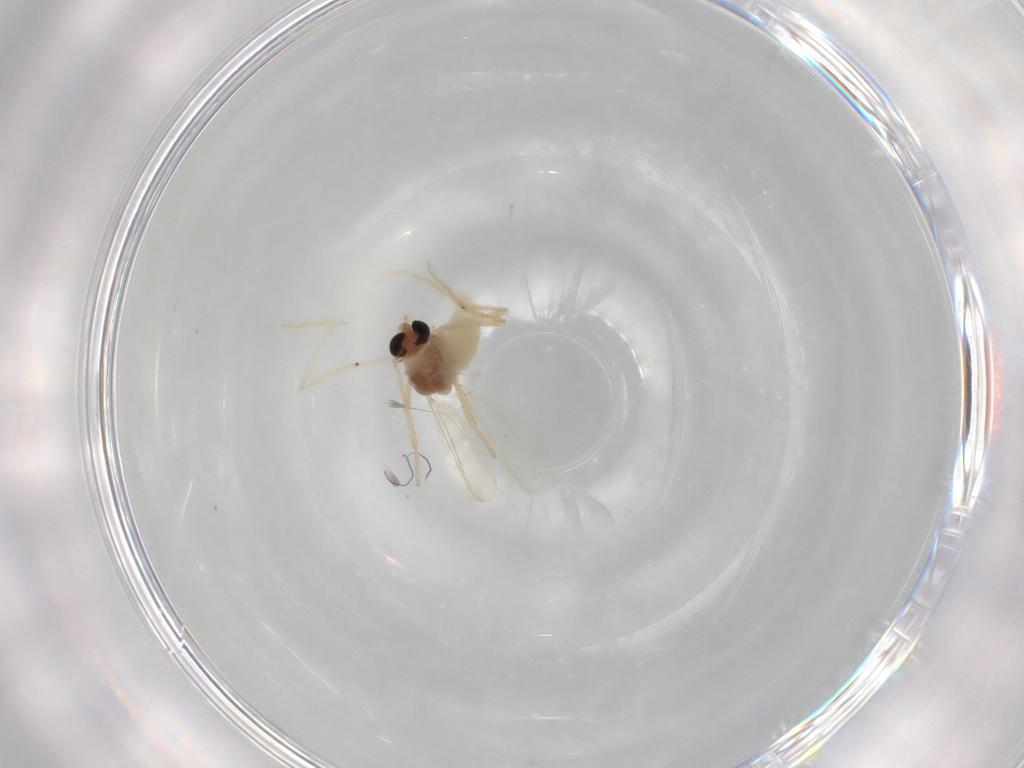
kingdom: Animalia
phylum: Arthropoda
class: Insecta
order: Diptera
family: Chironomidae
